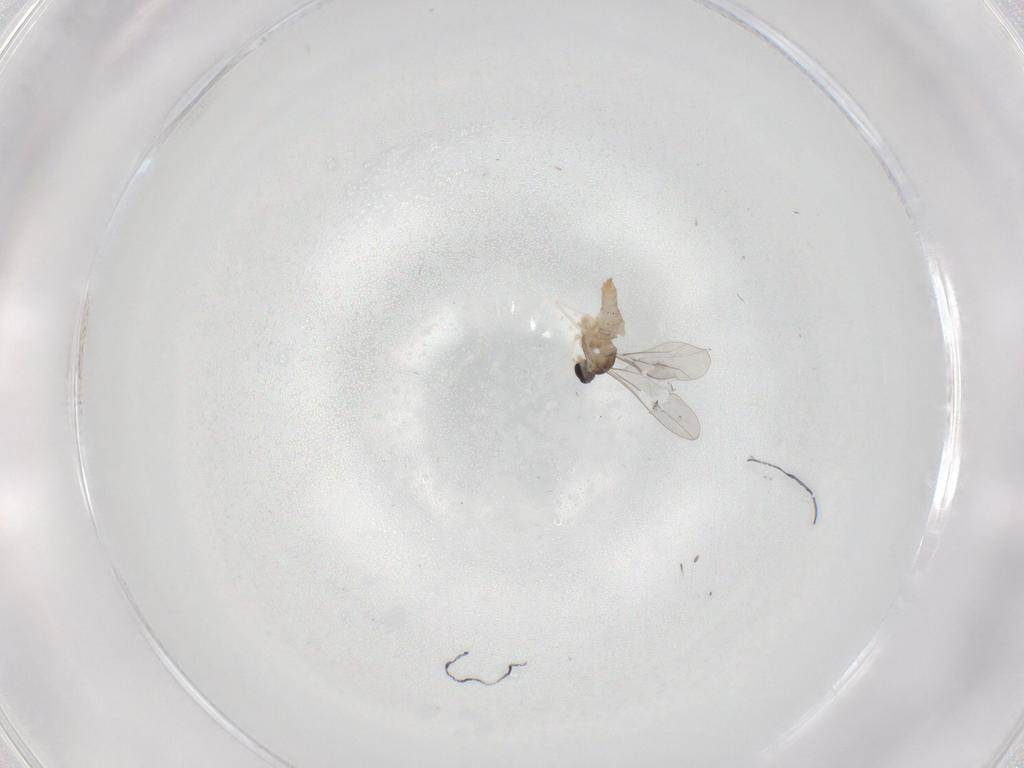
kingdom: Animalia
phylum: Arthropoda
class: Insecta
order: Diptera
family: Cecidomyiidae
